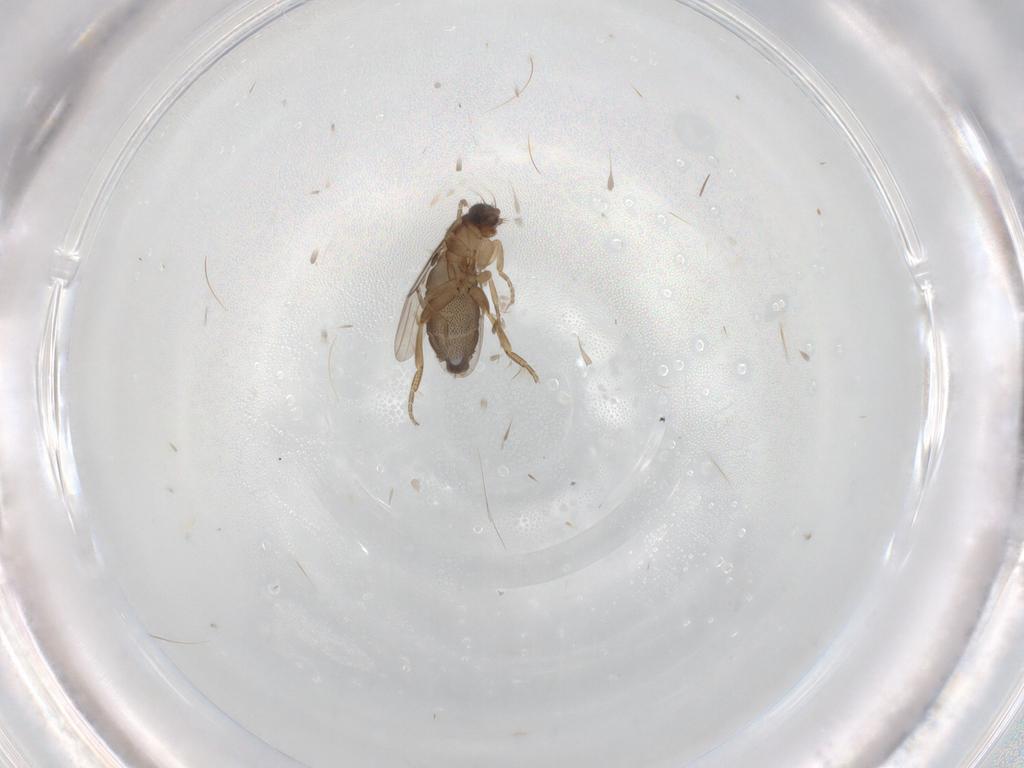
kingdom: Animalia
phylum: Arthropoda
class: Insecta
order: Diptera
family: Phoridae
